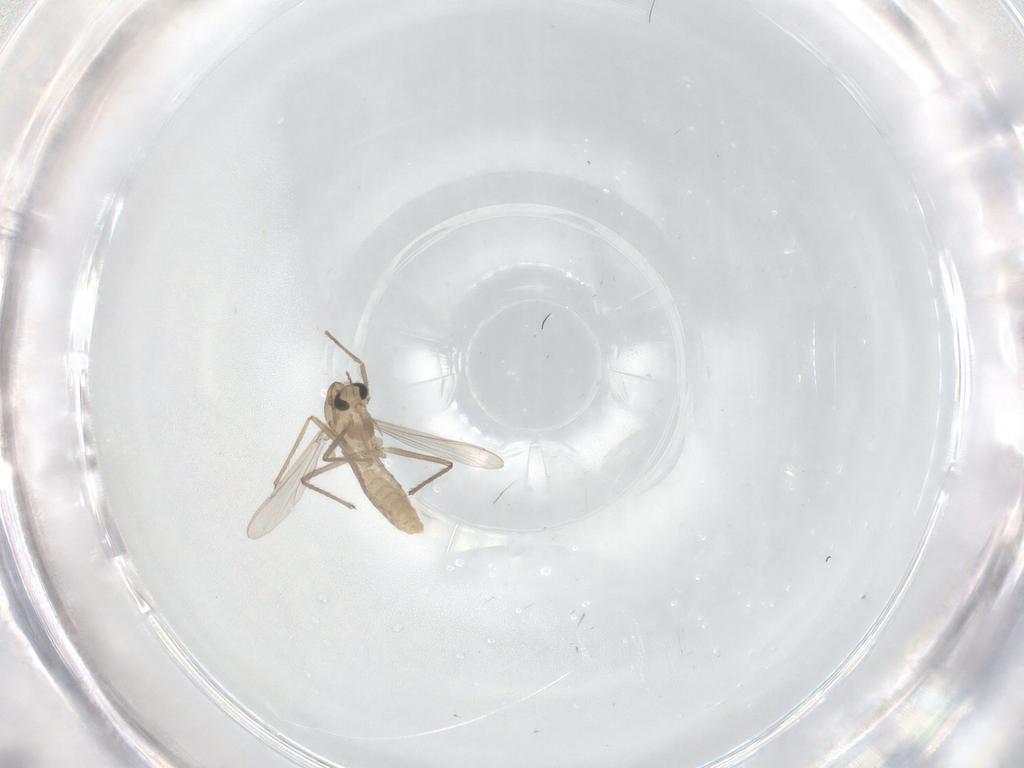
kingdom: Animalia
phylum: Arthropoda
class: Insecta
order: Diptera
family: Chironomidae
